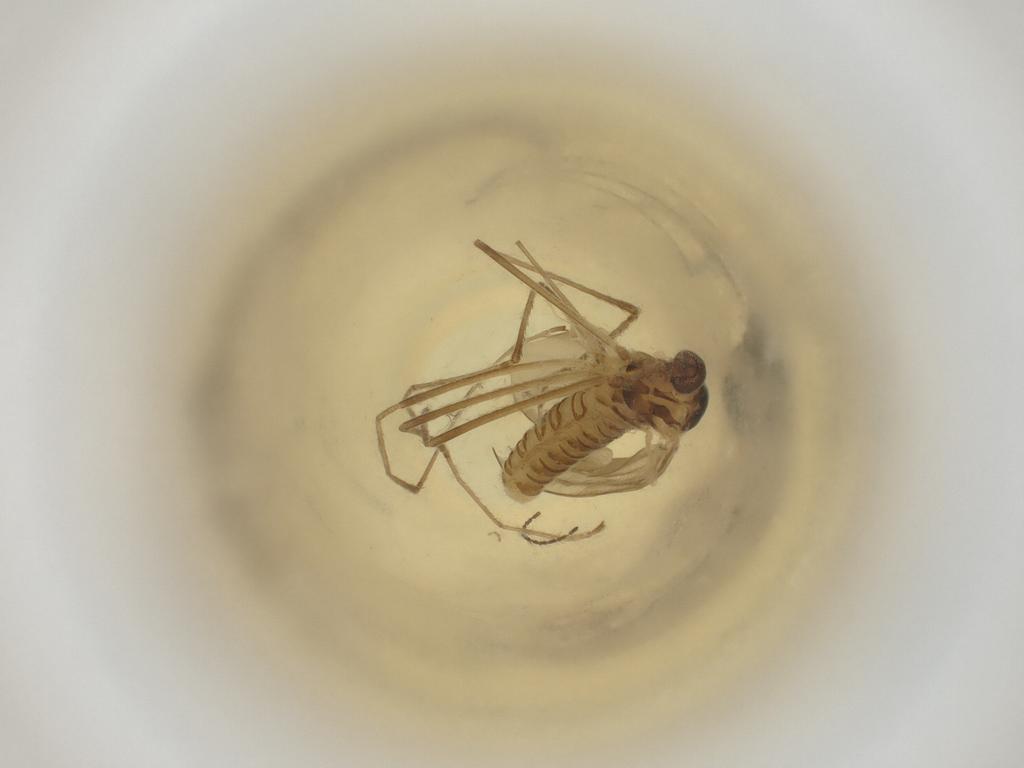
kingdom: Animalia
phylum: Arthropoda
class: Insecta
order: Diptera
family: Cecidomyiidae
